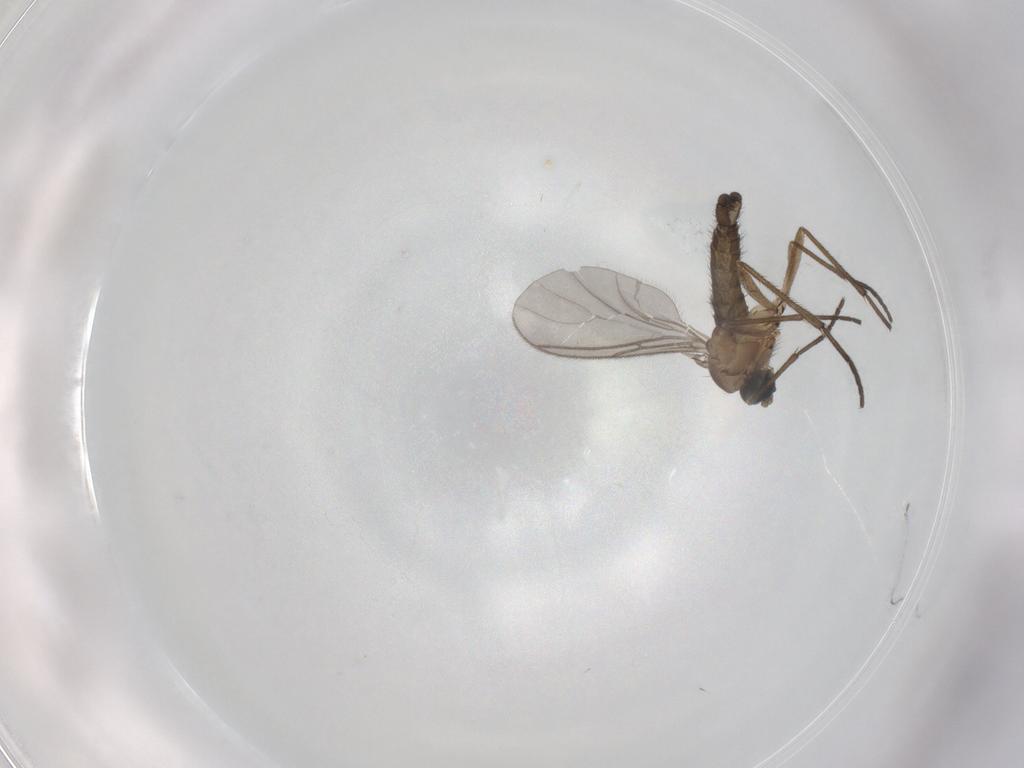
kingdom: Animalia
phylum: Arthropoda
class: Insecta
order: Diptera
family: Sciaridae
